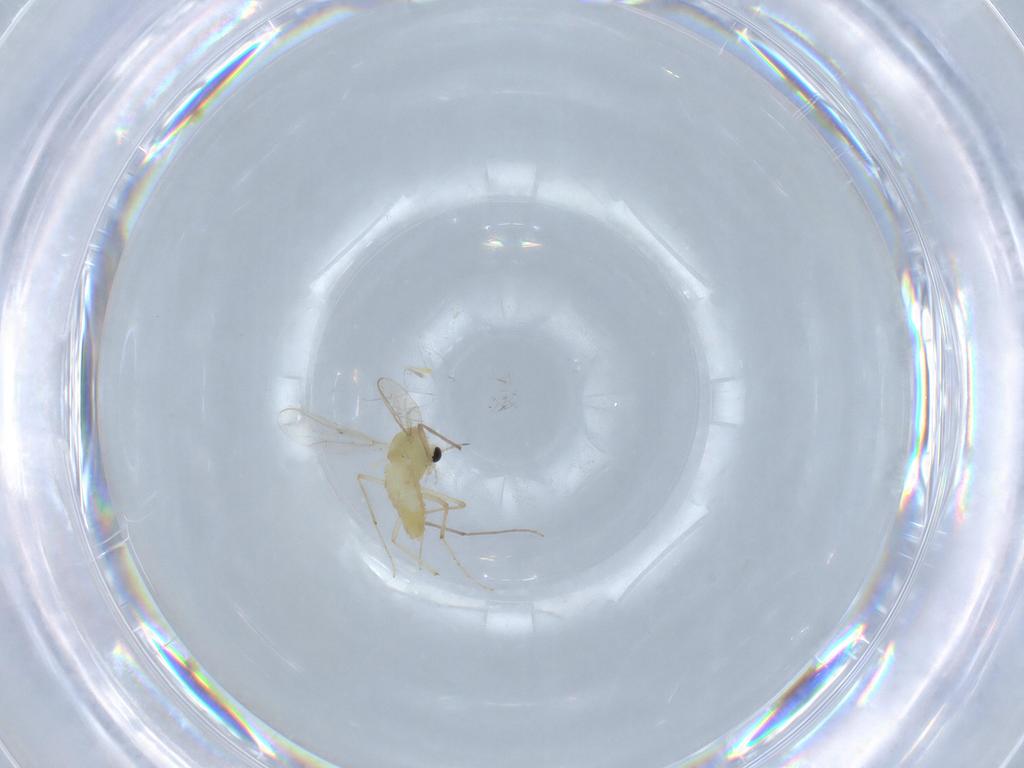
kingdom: Animalia
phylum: Arthropoda
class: Insecta
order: Diptera
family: Chironomidae
